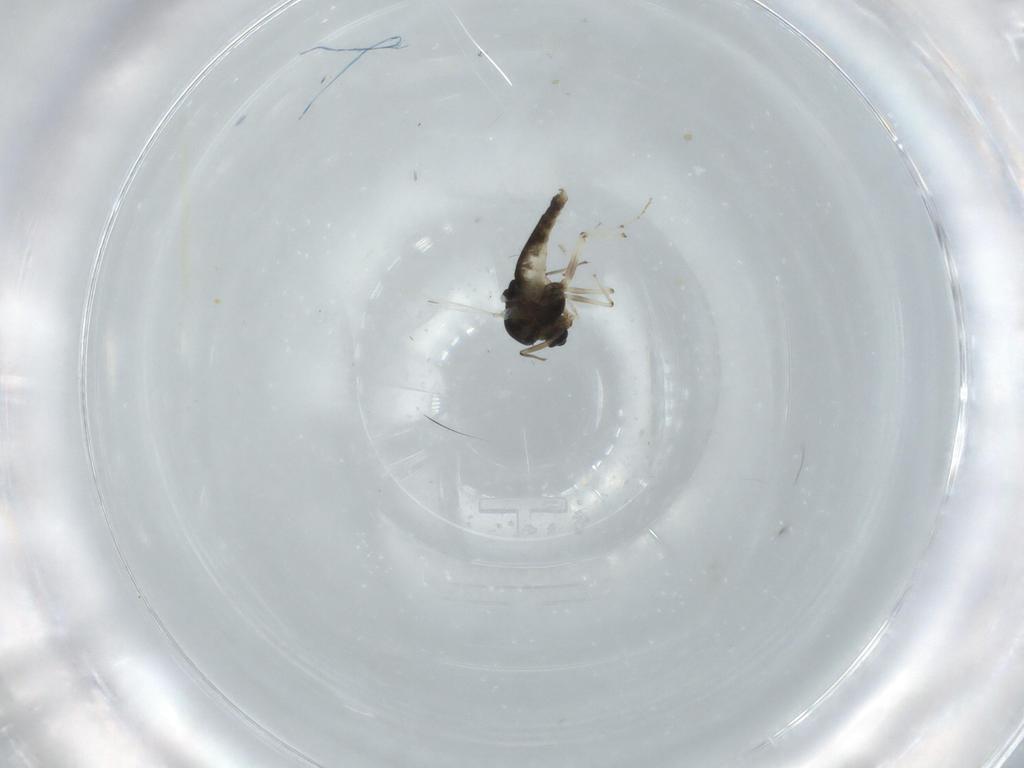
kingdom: Animalia
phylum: Arthropoda
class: Insecta
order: Diptera
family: Chironomidae
